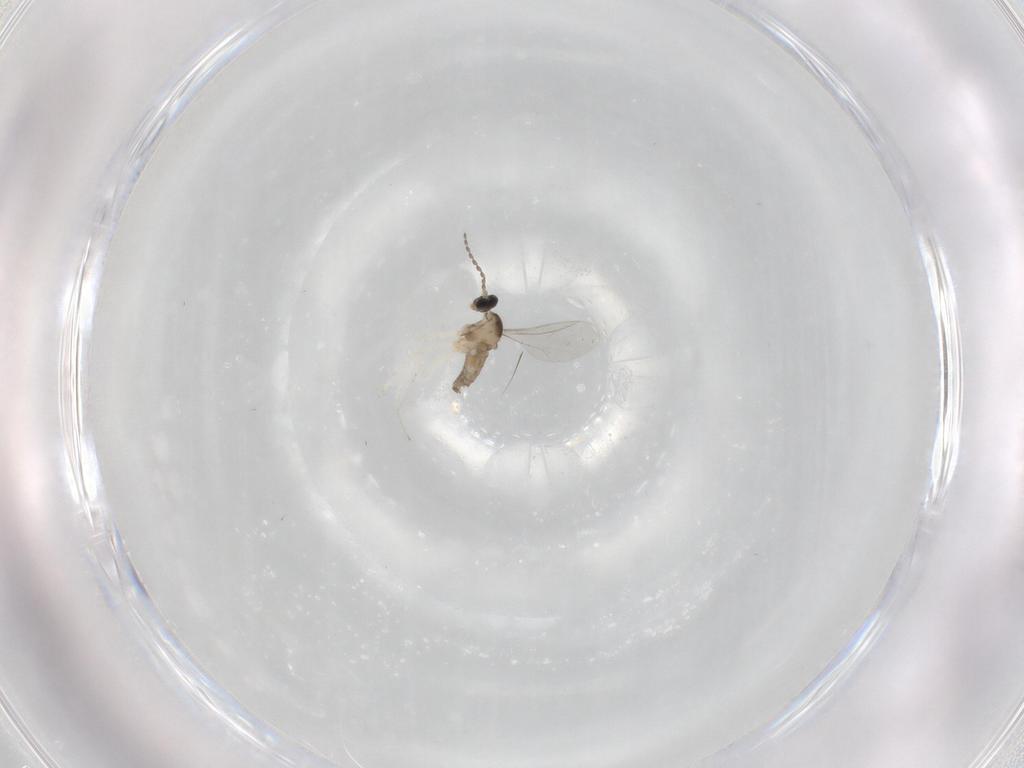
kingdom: Animalia
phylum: Arthropoda
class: Insecta
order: Diptera
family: Cecidomyiidae
